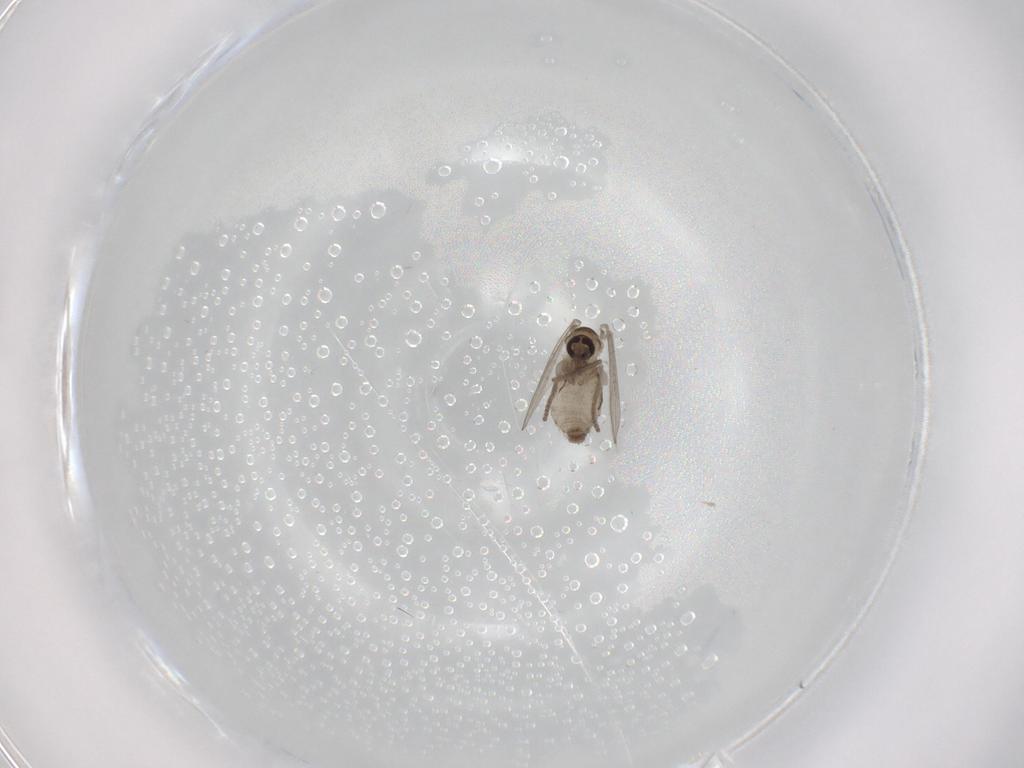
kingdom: Animalia
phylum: Arthropoda
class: Insecta
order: Diptera
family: Psychodidae
